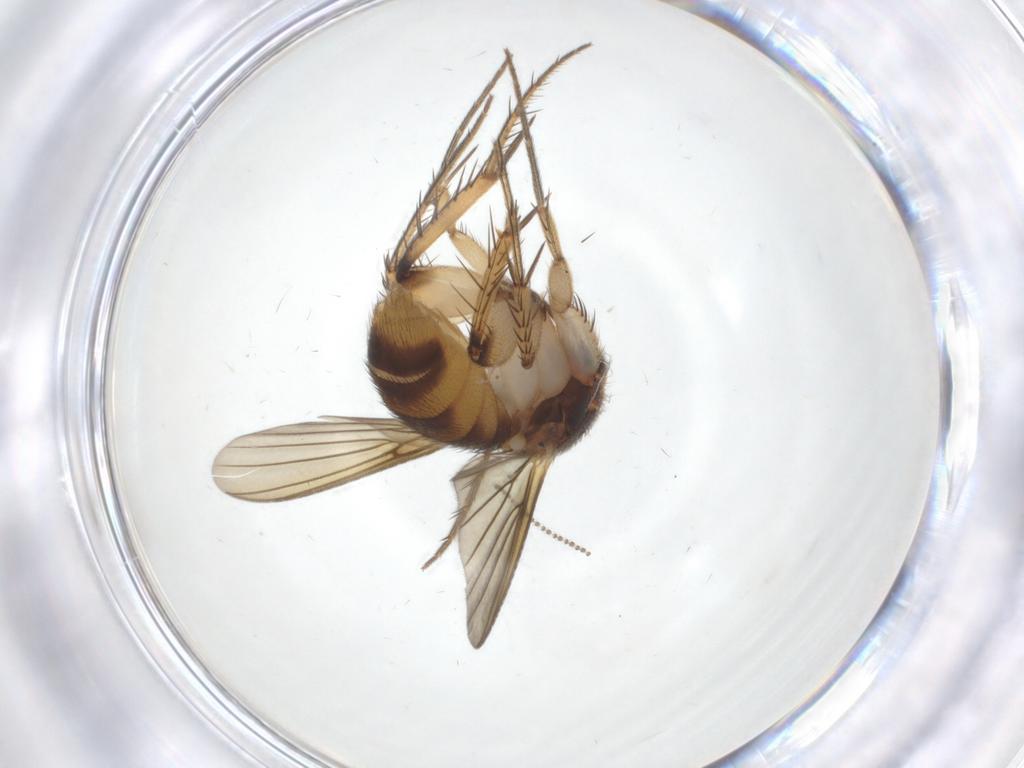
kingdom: Animalia
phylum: Arthropoda
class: Insecta
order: Diptera
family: Mycetophilidae
